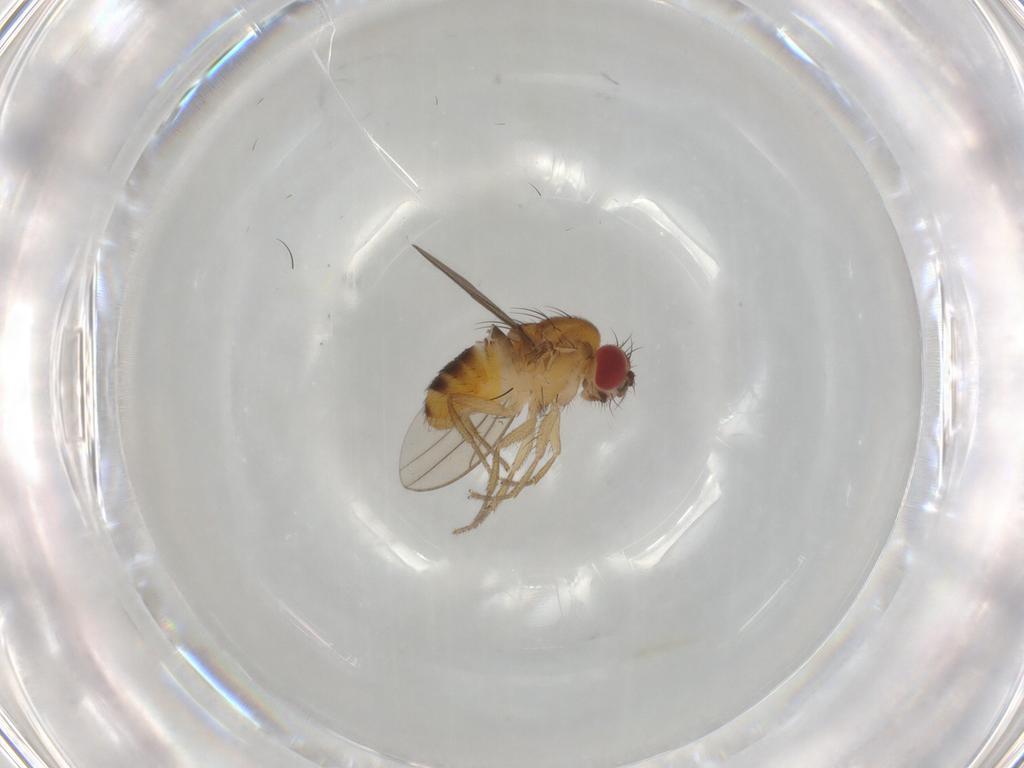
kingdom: Animalia
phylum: Arthropoda
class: Insecta
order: Diptera
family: Drosophilidae
